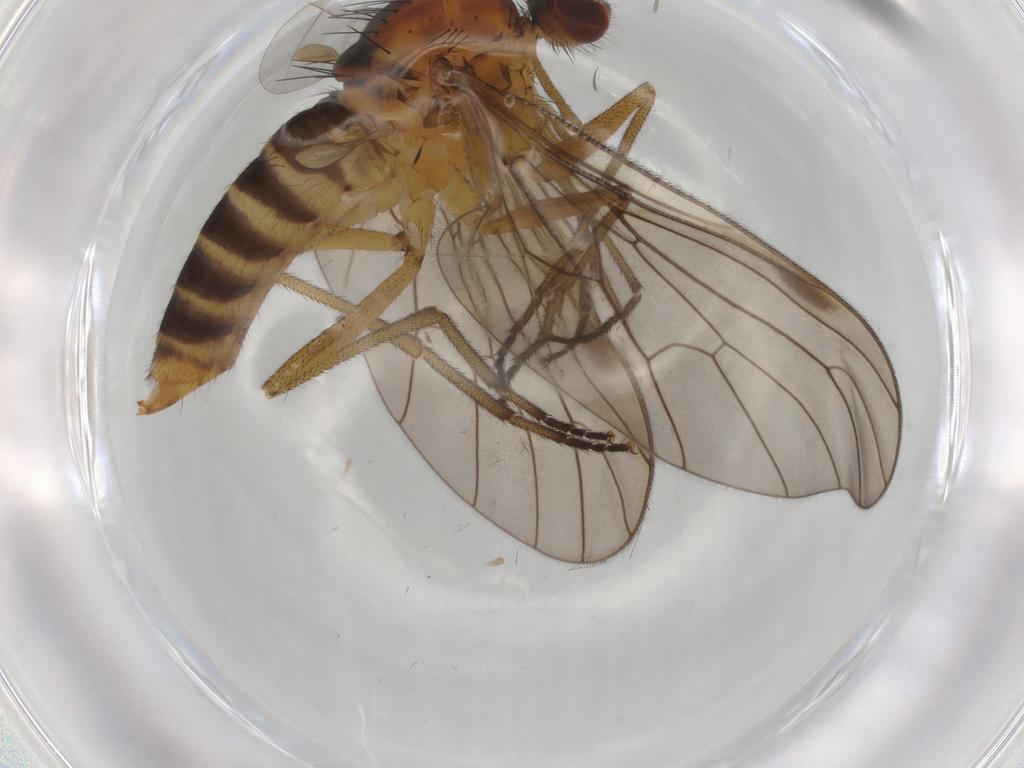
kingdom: Animalia
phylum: Arthropoda
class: Insecta
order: Diptera
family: Brachystomatidae
